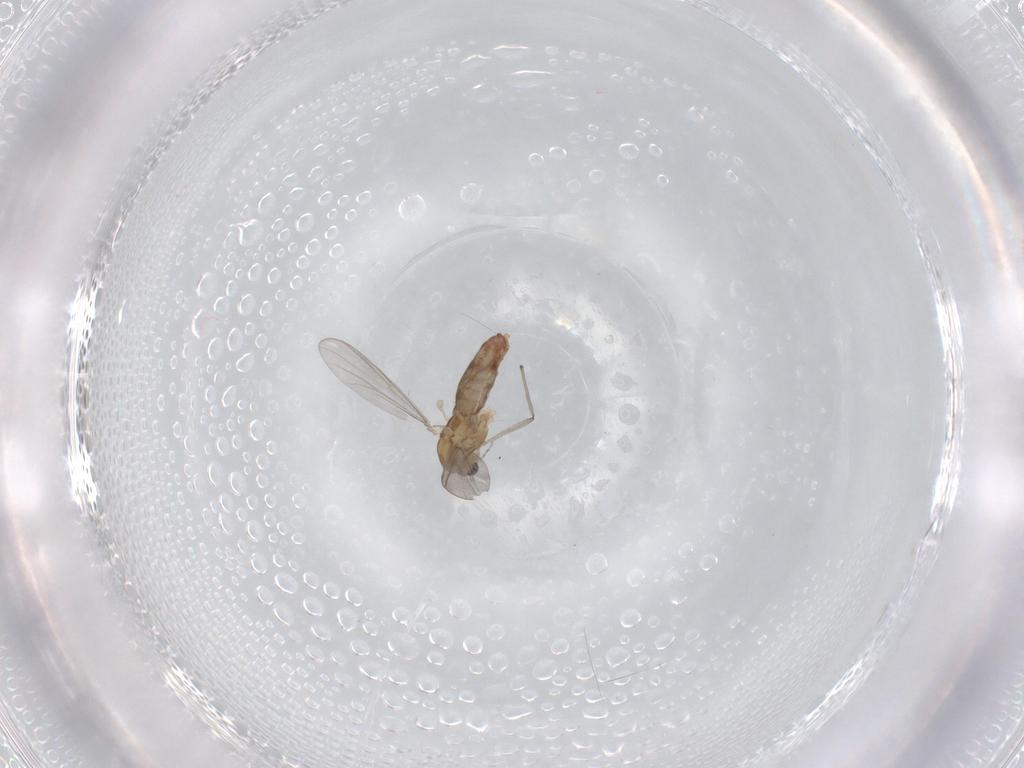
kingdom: Animalia
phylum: Arthropoda
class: Insecta
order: Diptera
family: Chironomidae
